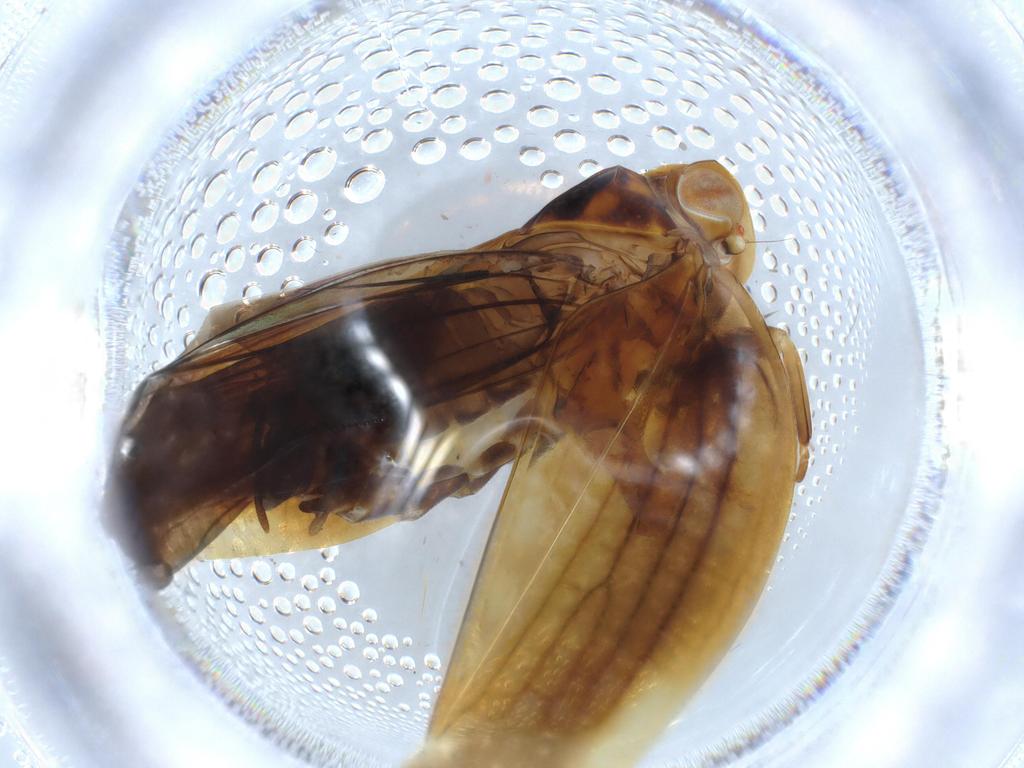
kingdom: Animalia
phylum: Arthropoda
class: Insecta
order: Hemiptera
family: Nogodinidae
